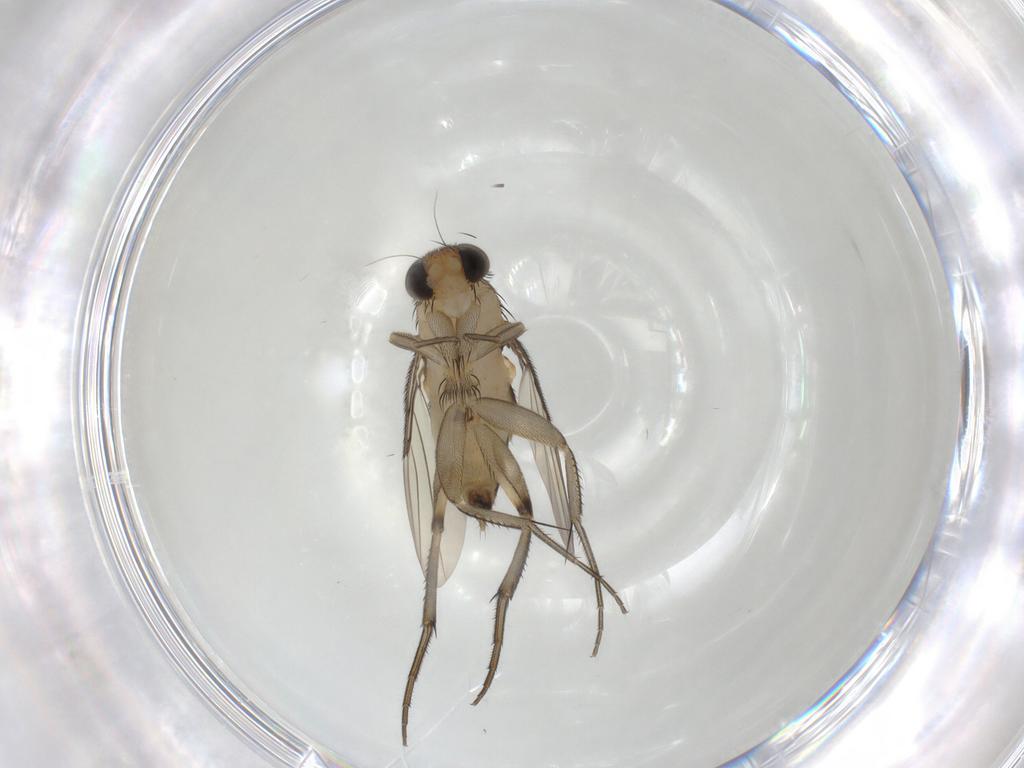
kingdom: Animalia
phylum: Arthropoda
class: Insecta
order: Diptera
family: Phoridae
